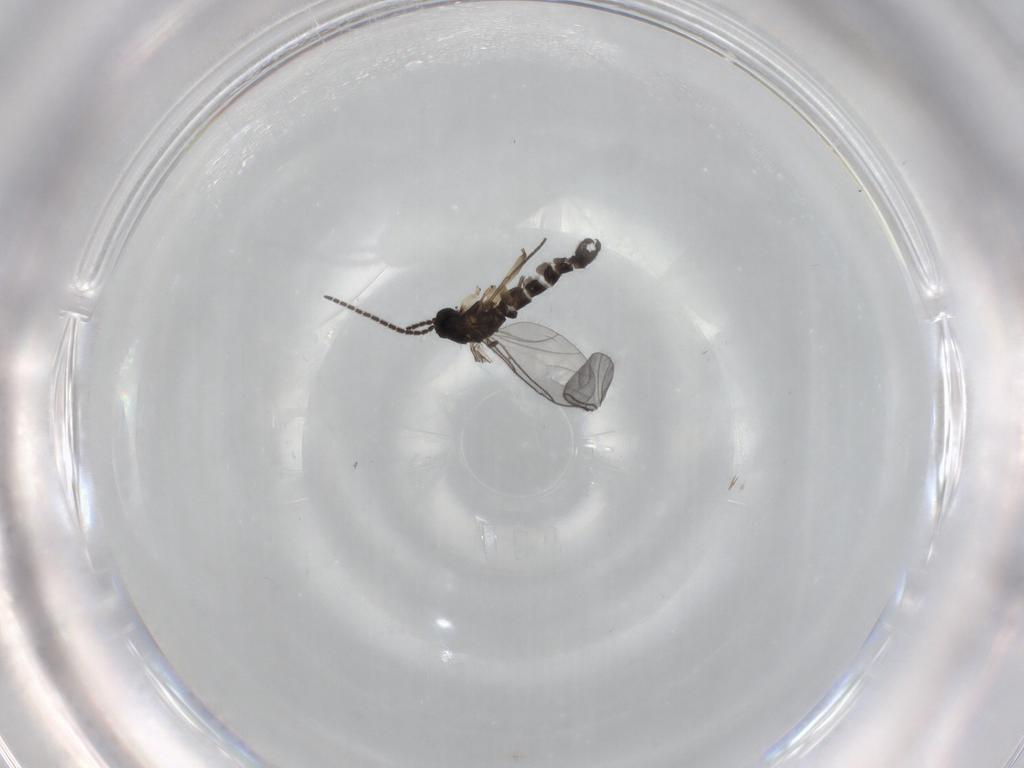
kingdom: Animalia
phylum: Arthropoda
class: Insecta
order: Diptera
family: Sciaridae
